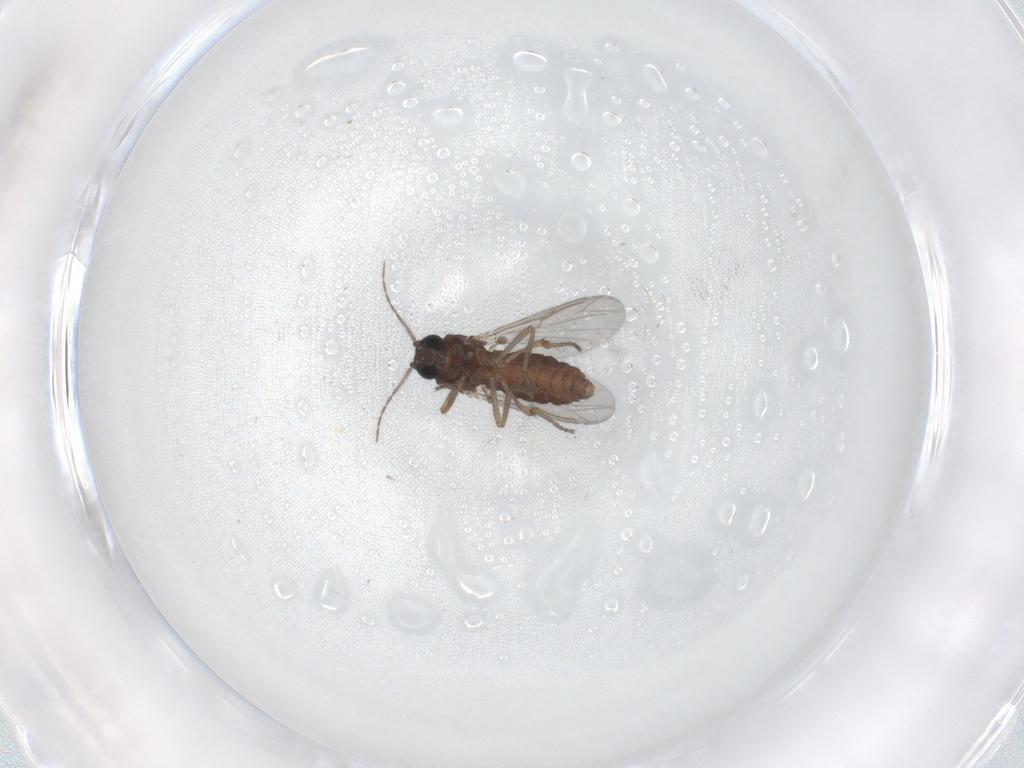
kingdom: Animalia
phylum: Arthropoda
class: Insecta
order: Diptera
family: Ceratopogonidae
